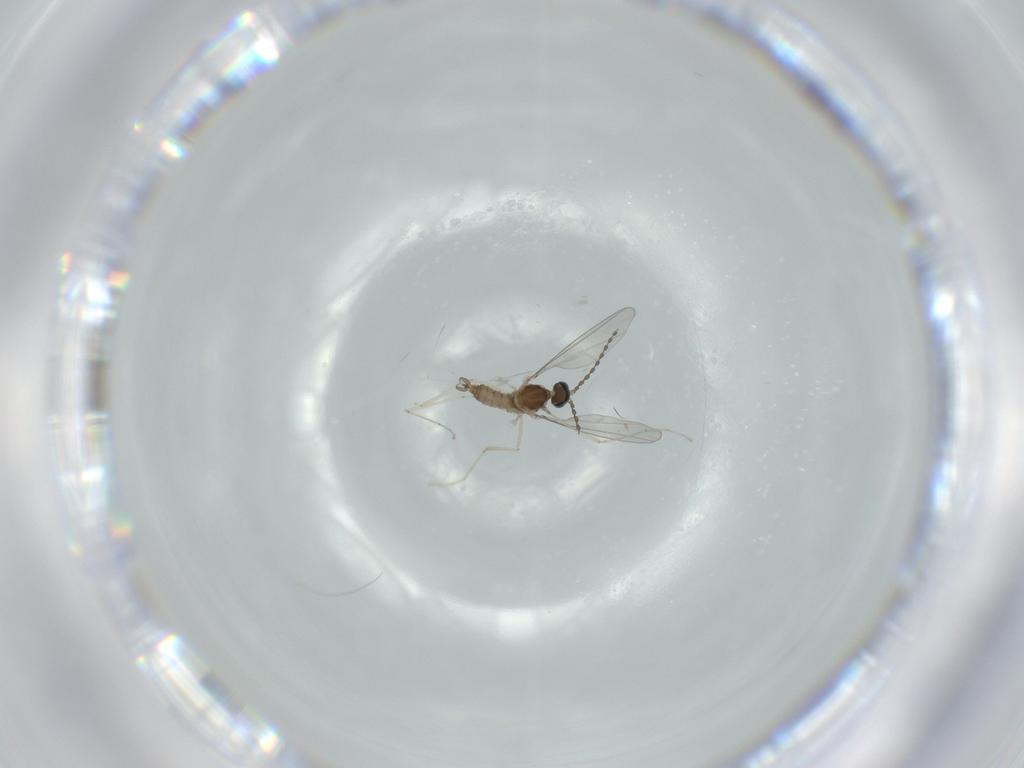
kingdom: Animalia
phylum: Arthropoda
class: Insecta
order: Diptera
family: Cecidomyiidae
